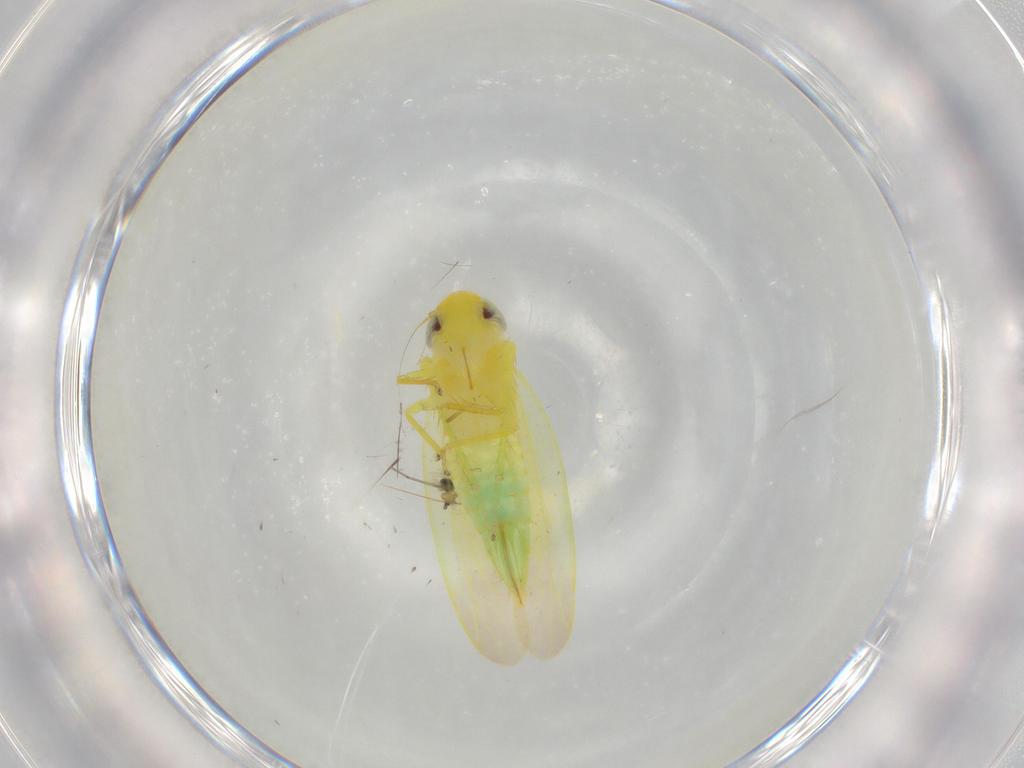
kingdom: Animalia
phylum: Arthropoda
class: Insecta
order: Hemiptera
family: Cicadellidae
